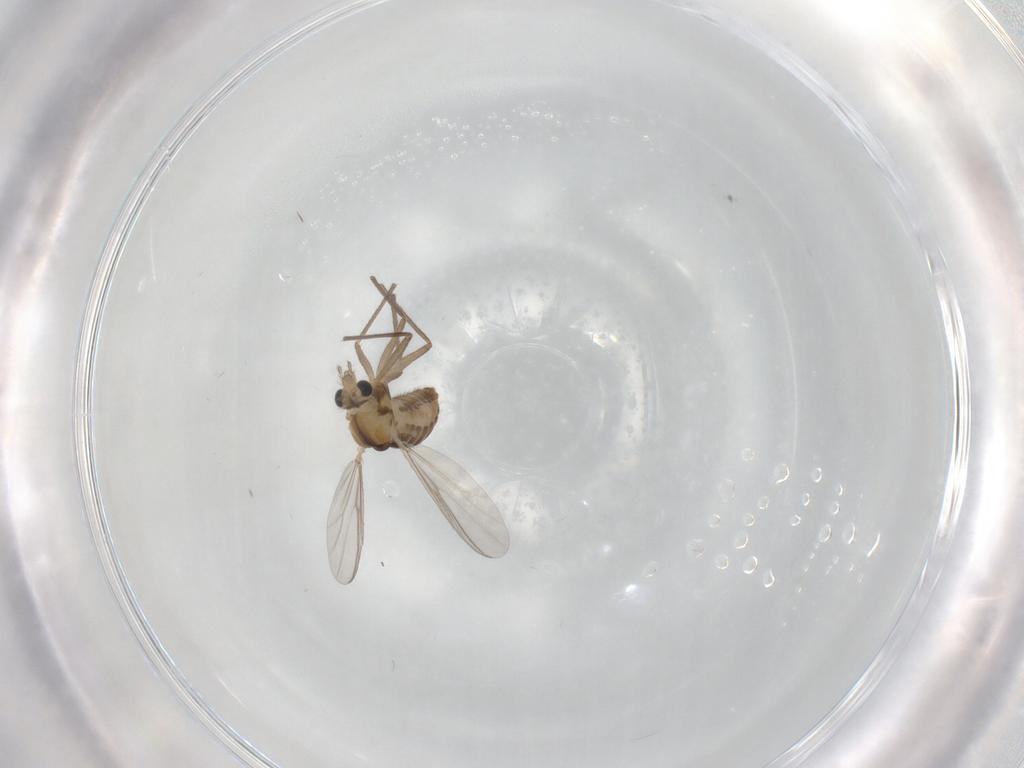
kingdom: Animalia
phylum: Arthropoda
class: Insecta
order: Diptera
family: Chironomidae
